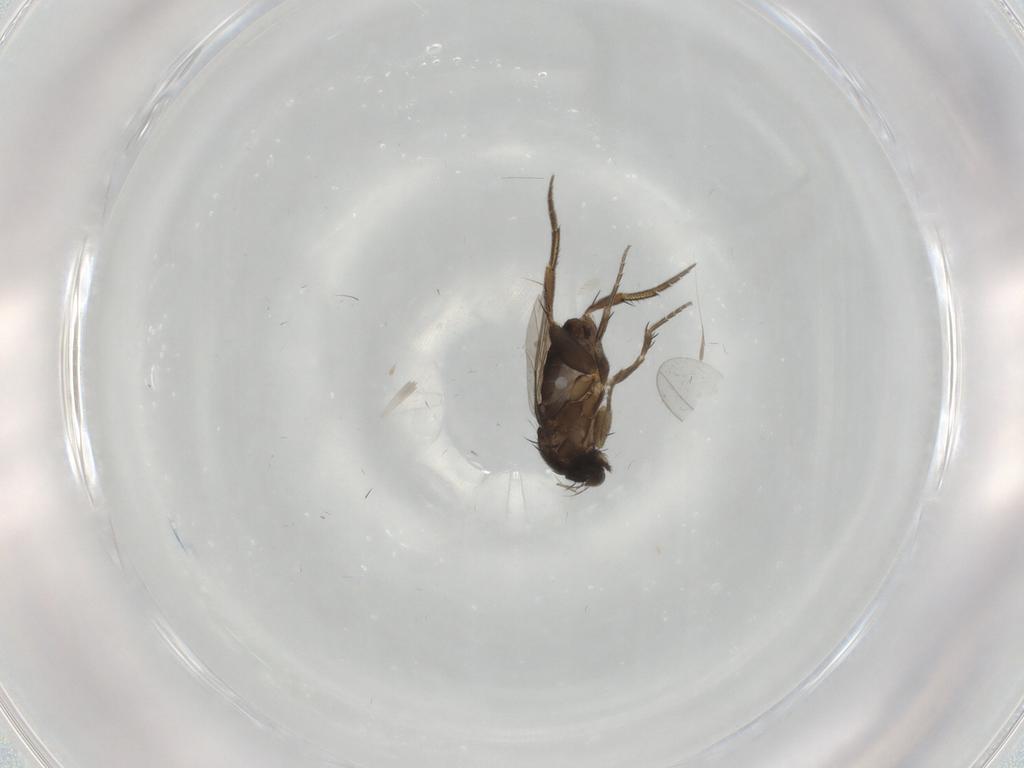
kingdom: Animalia
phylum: Arthropoda
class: Insecta
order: Diptera
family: Phoridae
